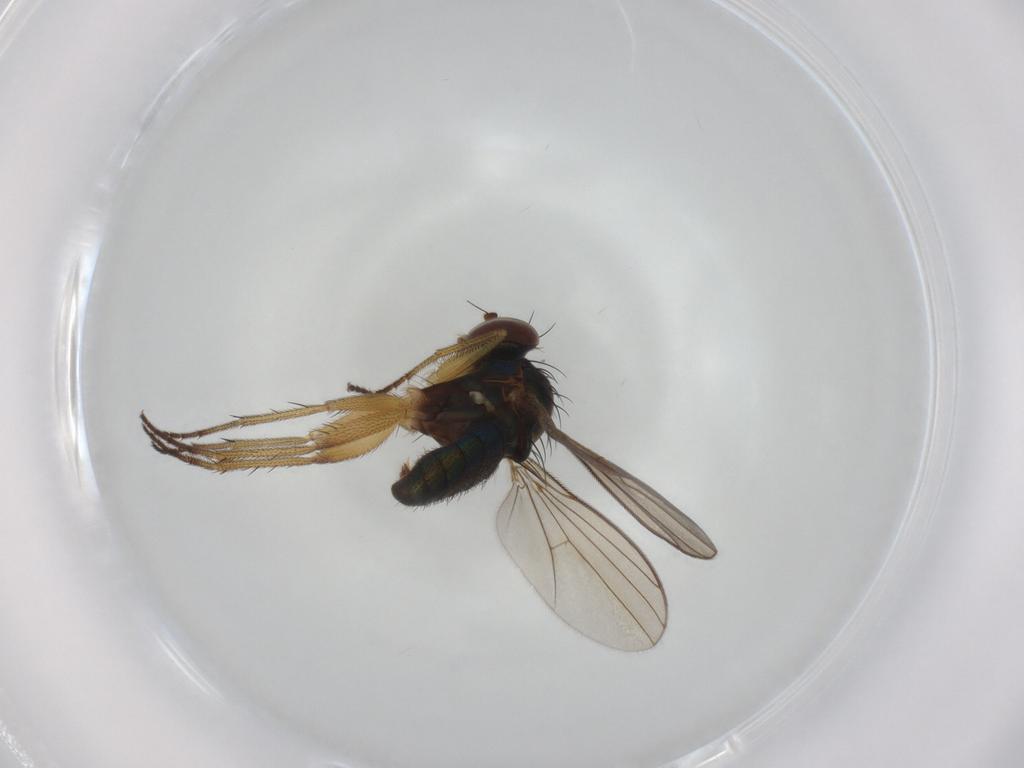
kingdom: Animalia
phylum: Arthropoda
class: Insecta
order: Diptera
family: Dolichopodidae
